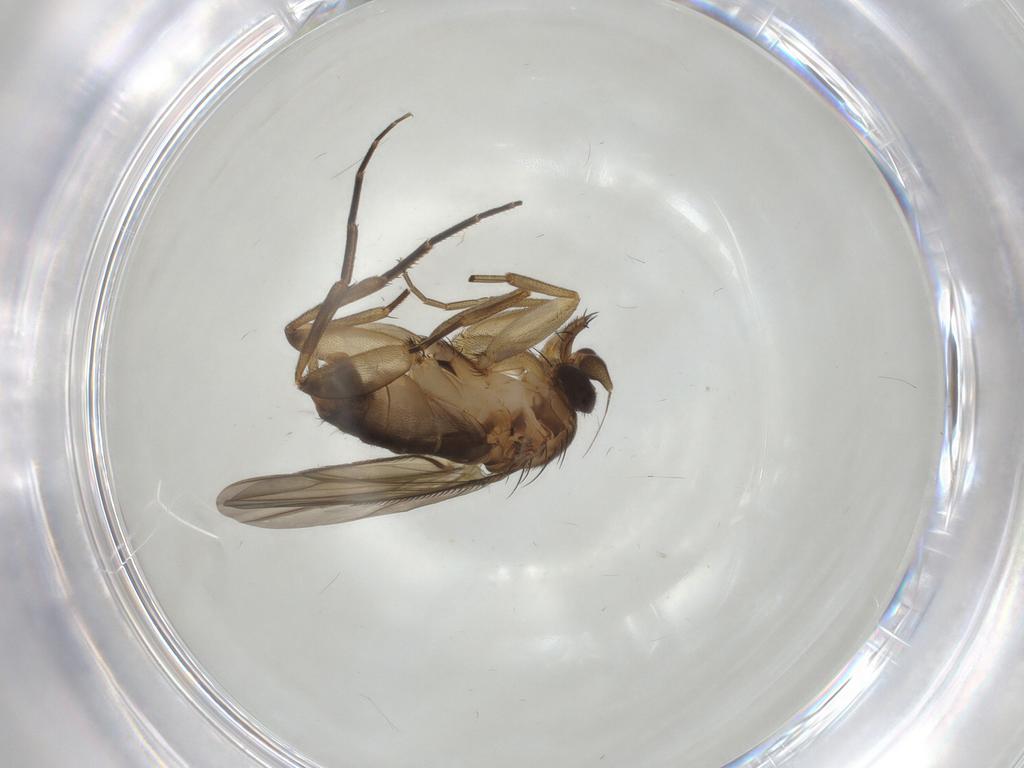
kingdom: Animalia
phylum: Arthropoda
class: Insecta
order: Diptera
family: Phoridae
